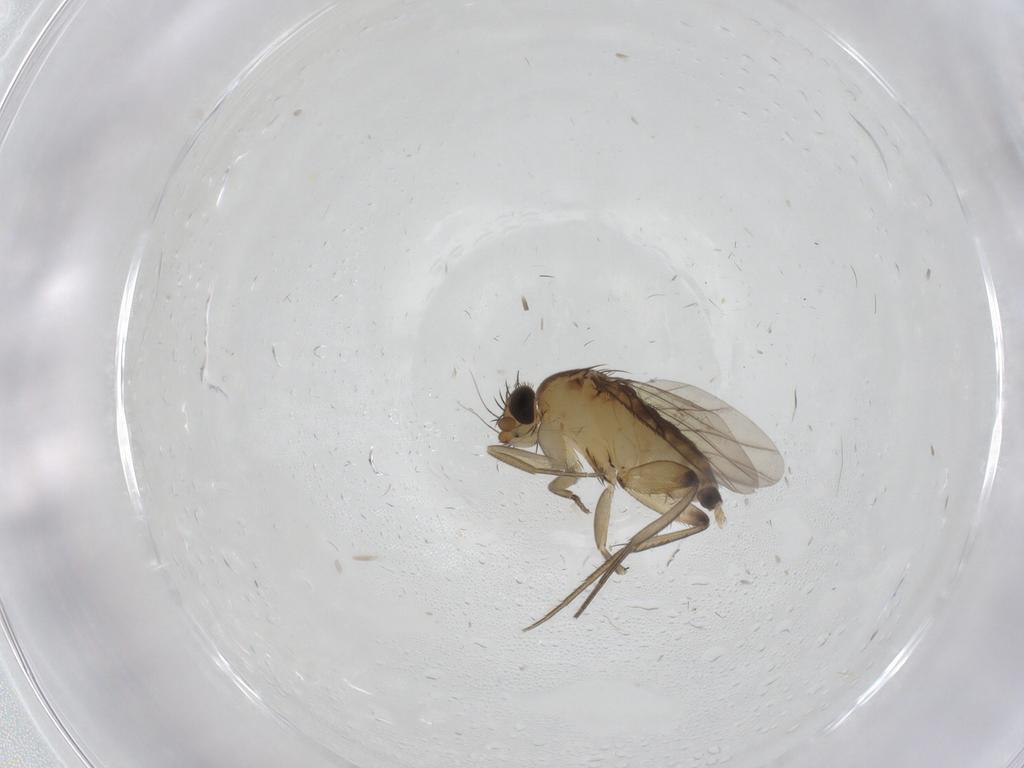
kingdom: Animalia
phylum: Arthropoda
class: Insecta
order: Diptera
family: Phoridae
